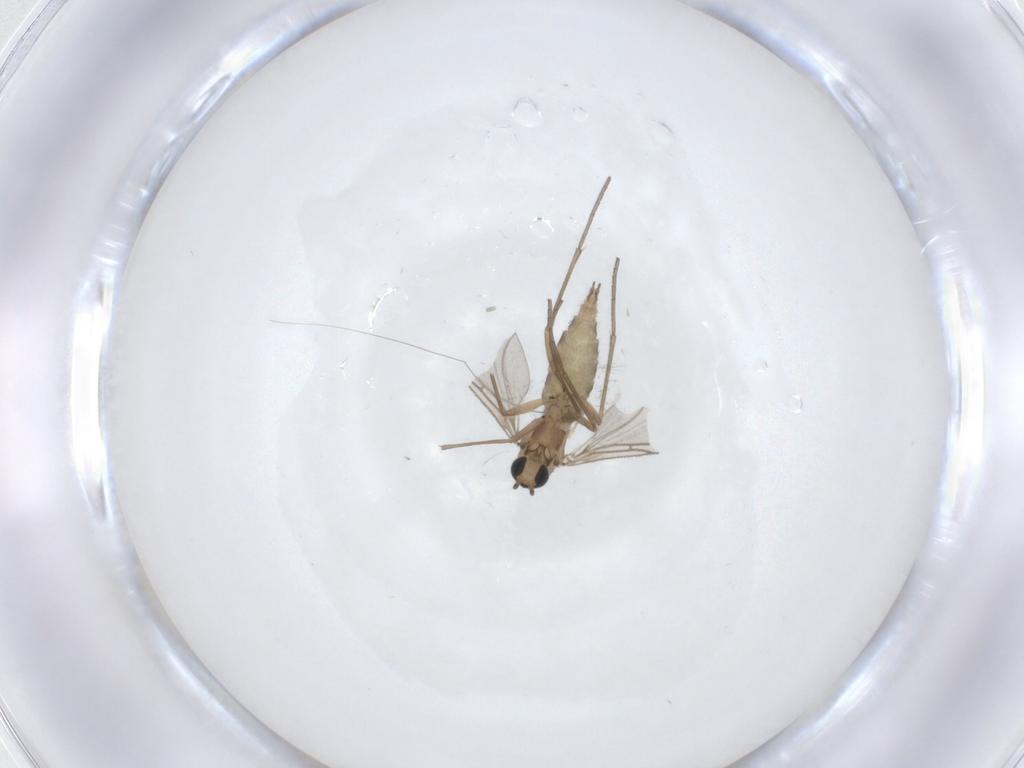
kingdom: Animalia
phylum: Arthropoda
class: Insecta
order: Diptera
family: Sciaridae
